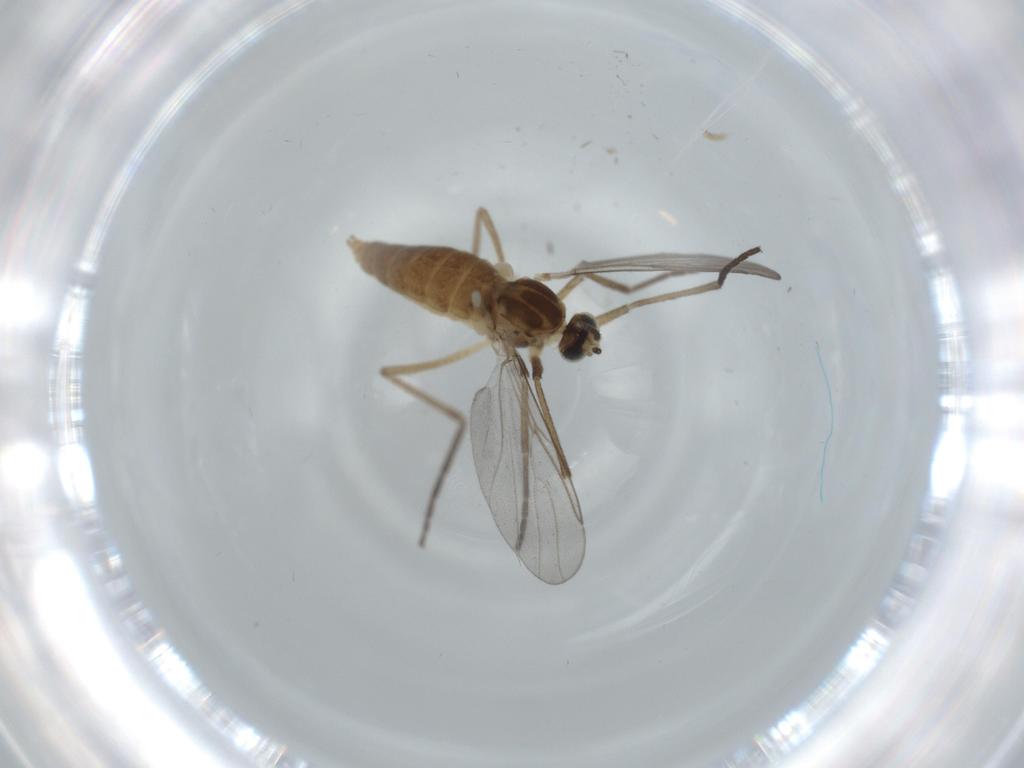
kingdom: Animalia
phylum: Arthropoda
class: Insecta
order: Diptera
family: Cecidomyiidae
